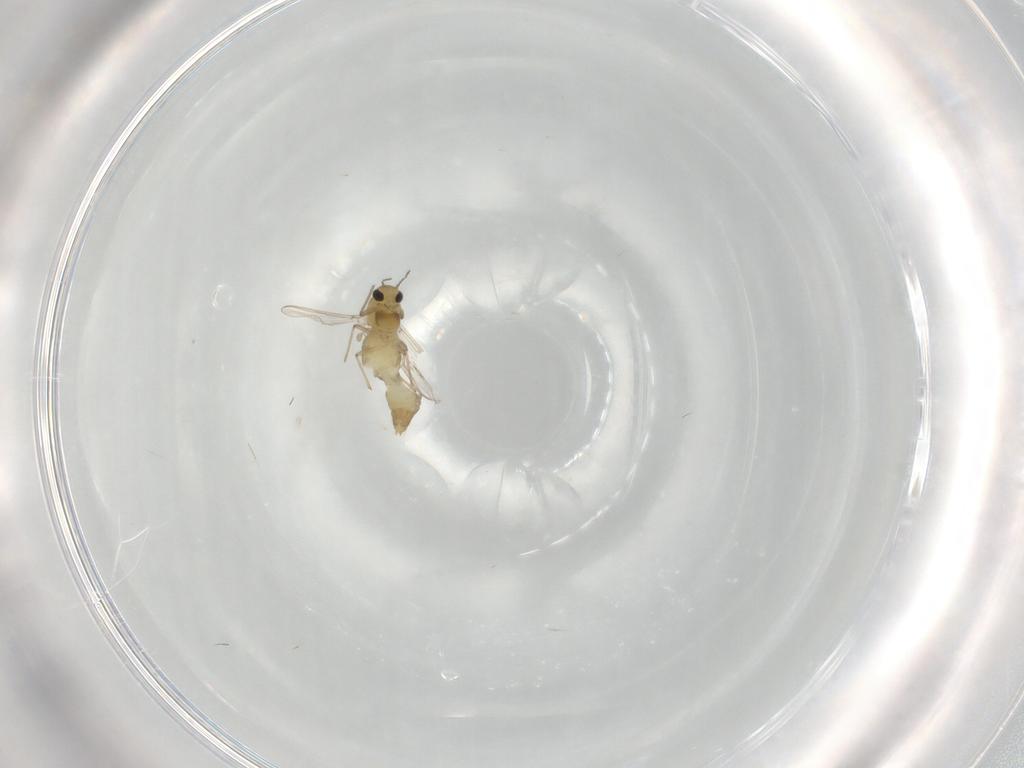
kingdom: Animalia
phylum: Arthropoda
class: Insecta
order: Diptera
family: Chironomidae
